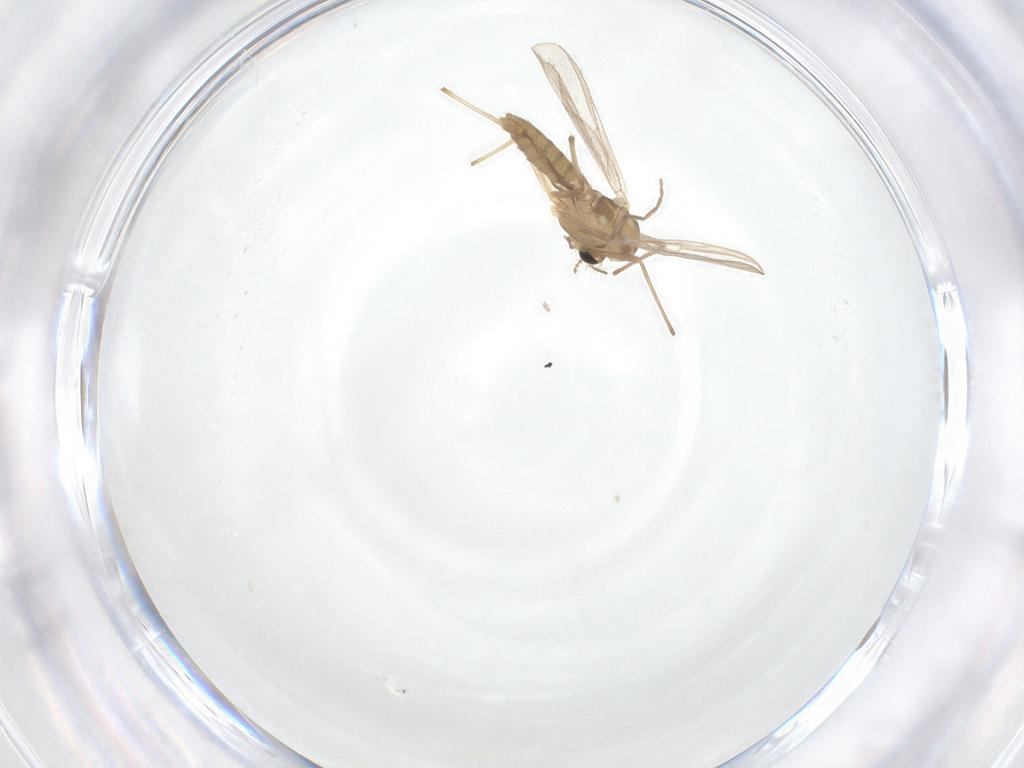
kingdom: Animalia
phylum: Arthropoda
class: Insecta
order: Diptera
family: Chironomidae
